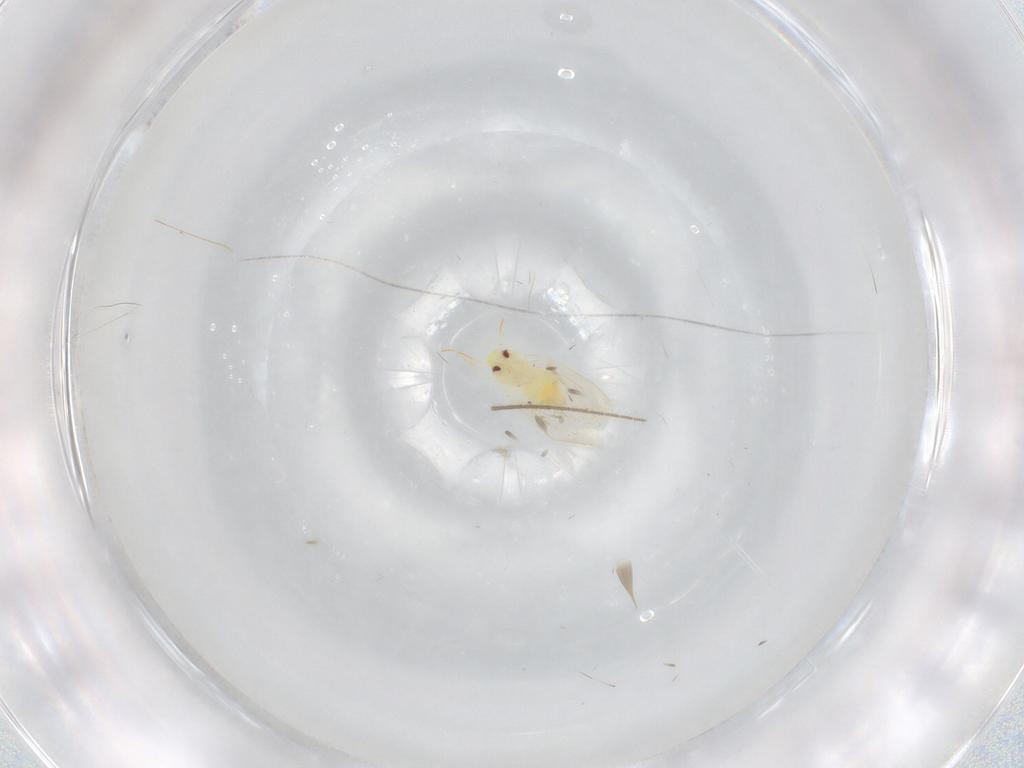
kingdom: Animalia
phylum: Arthropoda
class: Insecta
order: Hemiptera
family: Aleyrodidae
